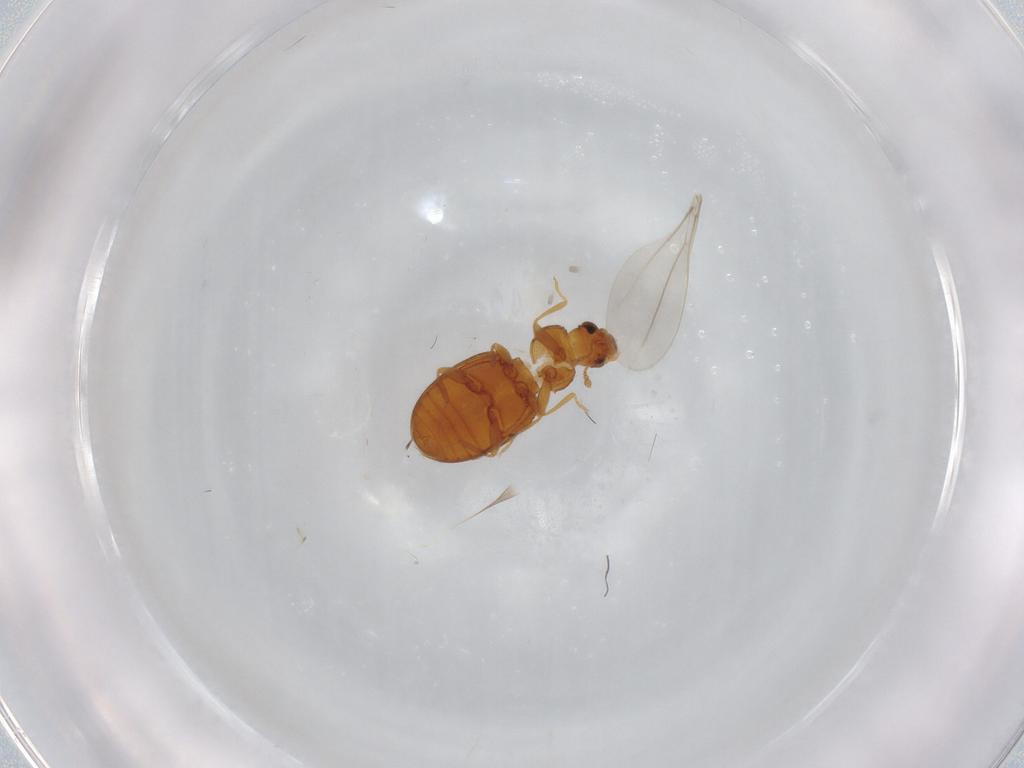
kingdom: Animalia
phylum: Arthropoda
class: Insecta
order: Coleoptera
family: Latridiidae
